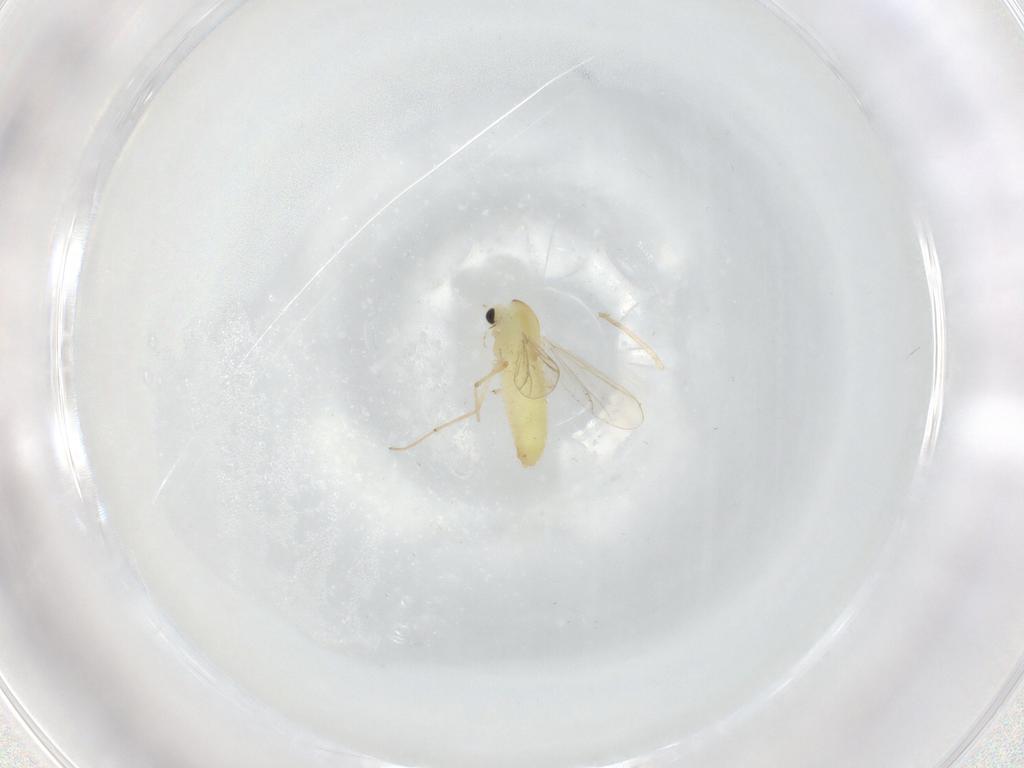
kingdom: Animalia
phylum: Arthropoda
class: Insecta
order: Diptera
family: Chironomidae
